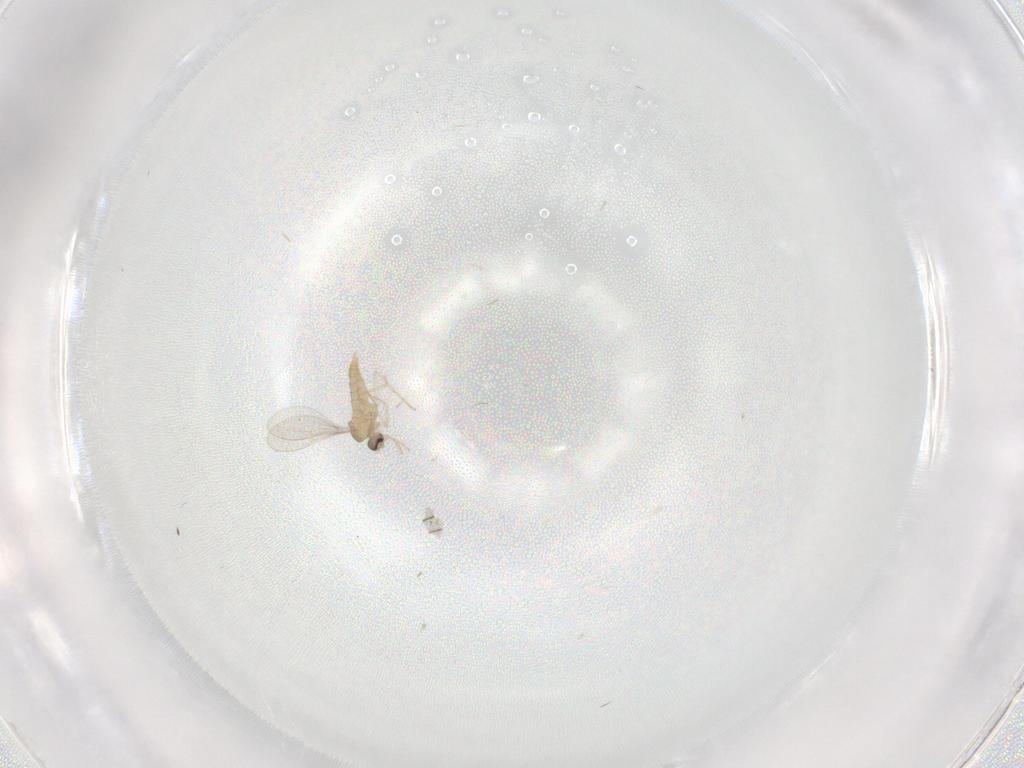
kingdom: Animalia
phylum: Arthropoda
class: Insecta
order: Diptera
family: Cecidomyiidae
